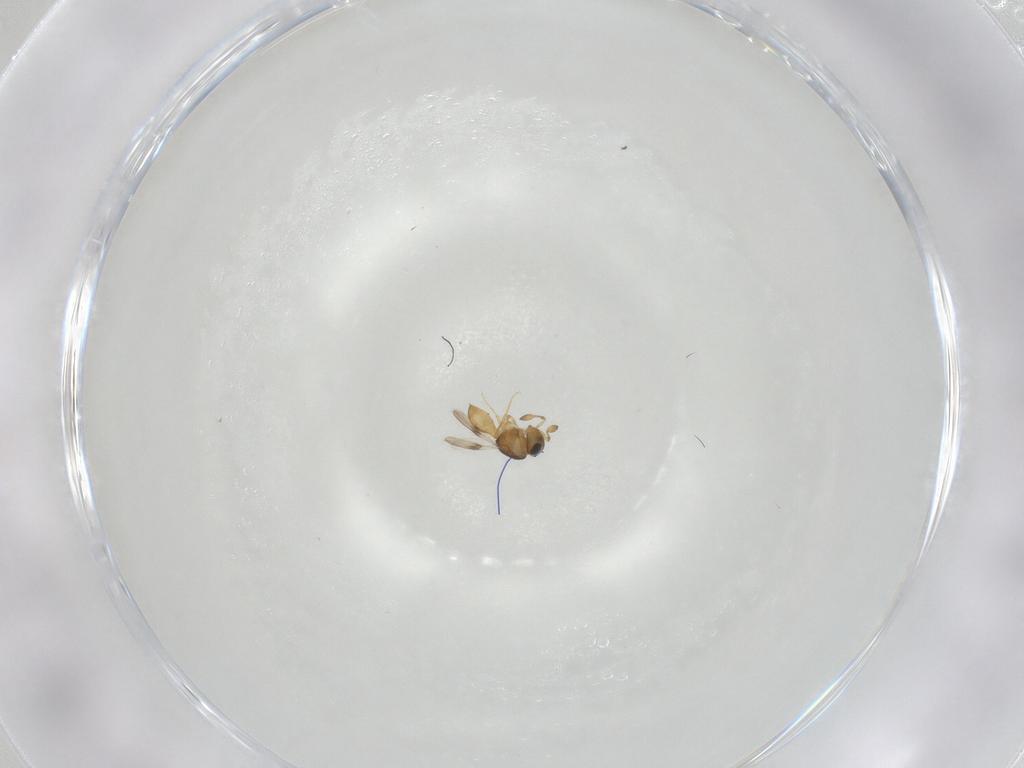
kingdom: Animalia
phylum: Arthropoda
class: Insecta
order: Hymenoptera
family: Scelionidae
